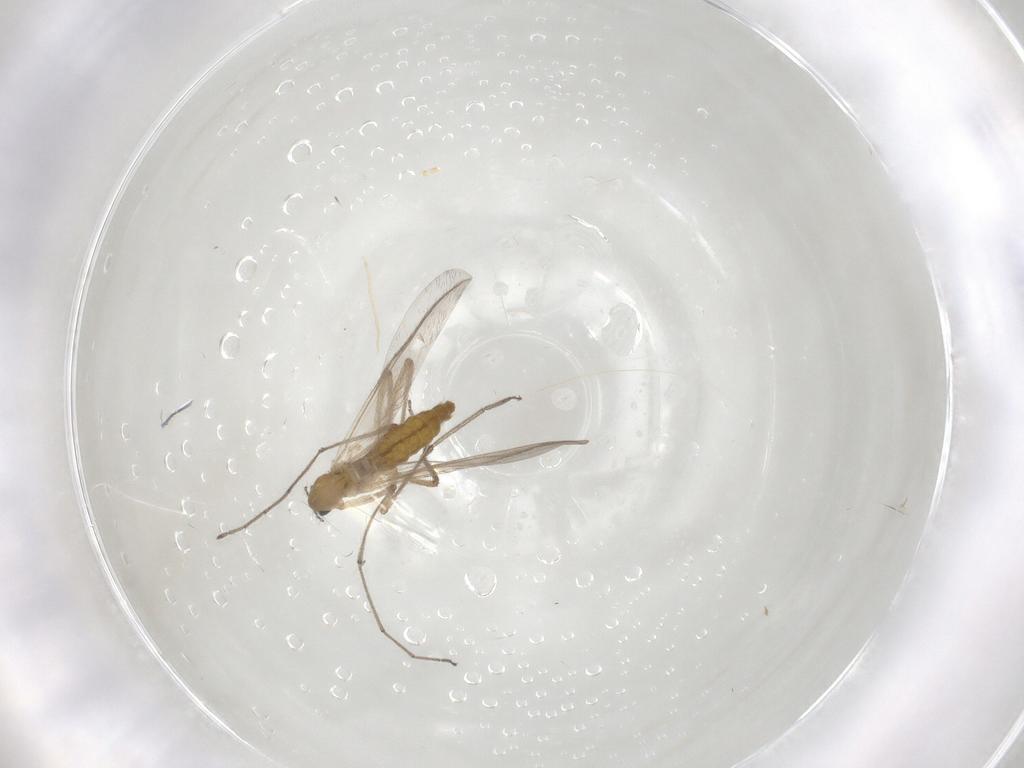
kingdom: Animalia
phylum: Arthropoda
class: Insecta
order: Diptera
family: Chironomidae
